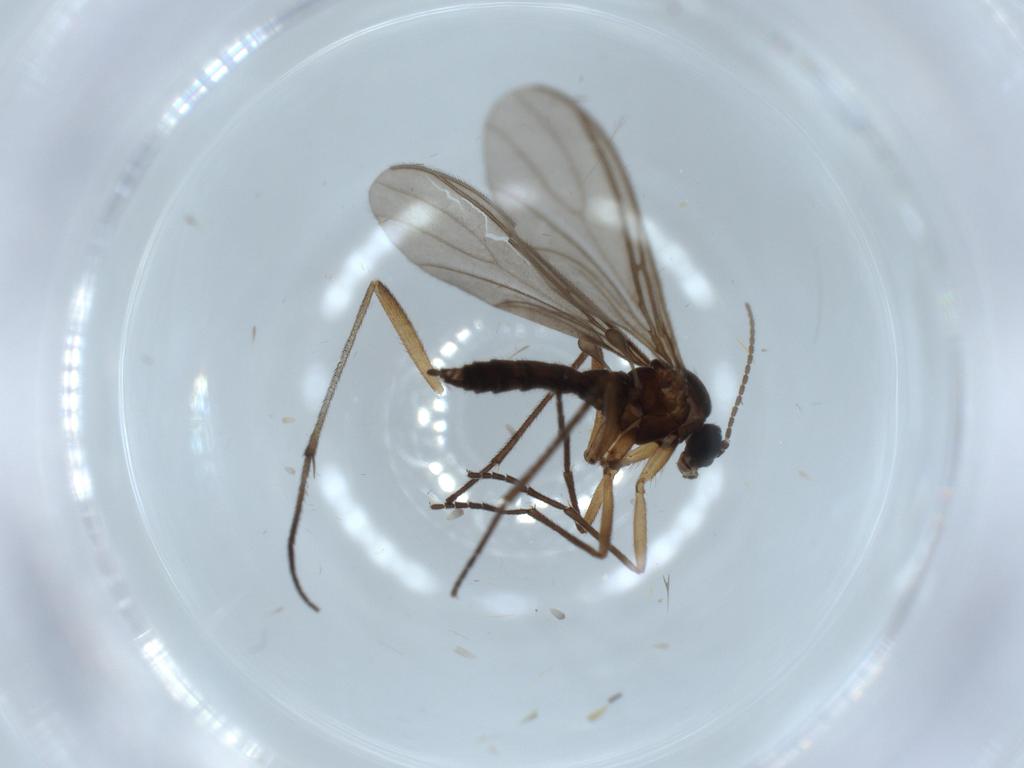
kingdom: Animalia
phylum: Arthropoda
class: Insecta
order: Diptera
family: Sciaridae
